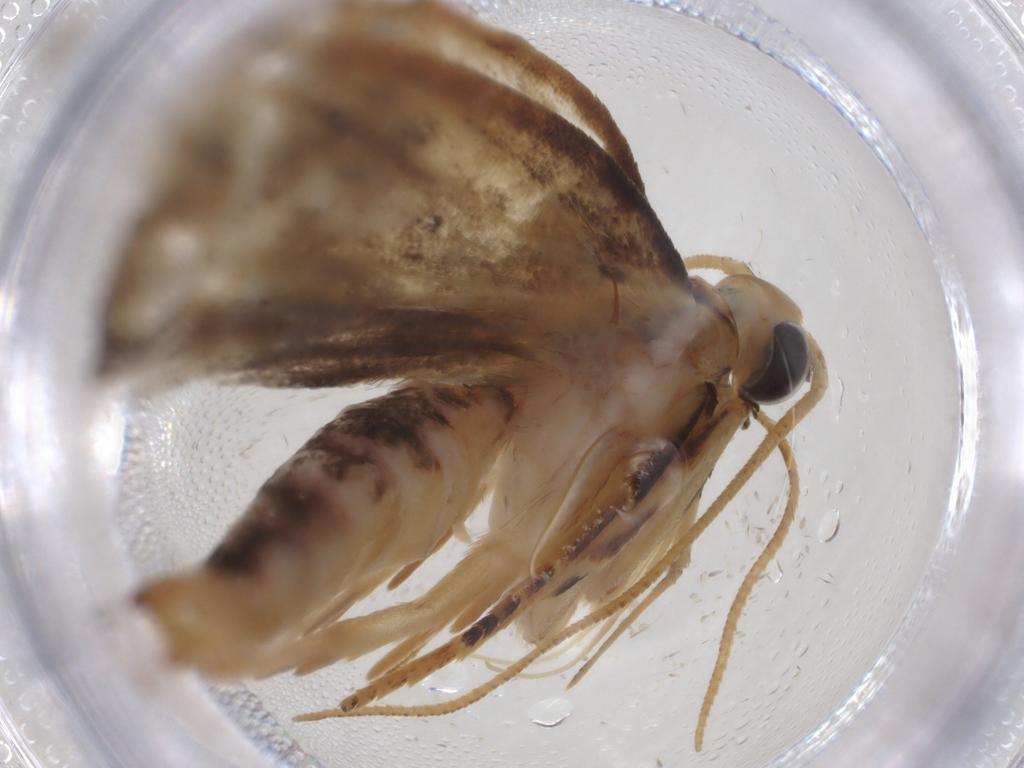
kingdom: Animalia
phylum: Arthropoda
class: Insecta
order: Lepidoptera
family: Depressariidae
